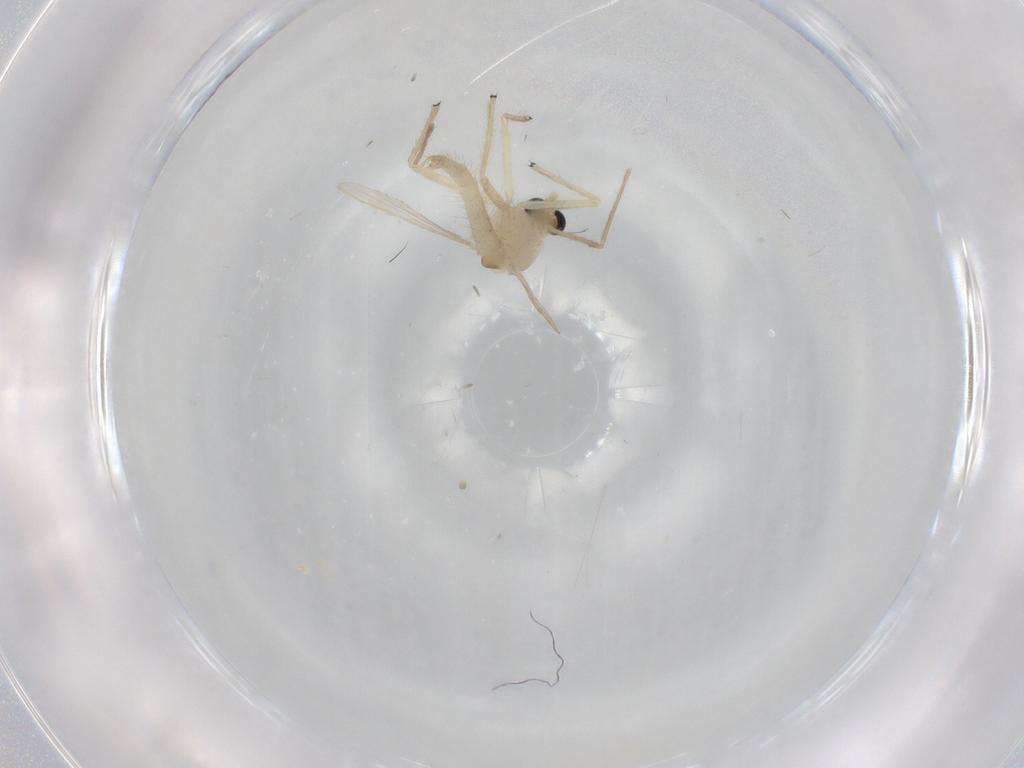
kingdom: Animalia
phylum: Arthropoda
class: Insecta
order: Diptera
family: Chironomidae
